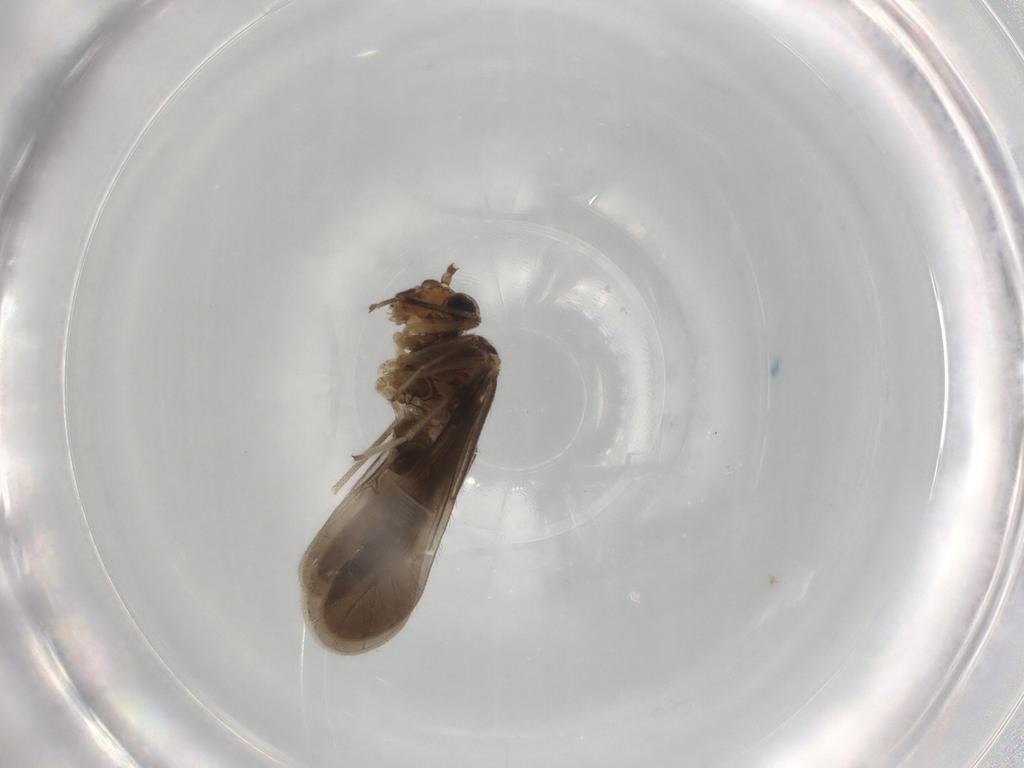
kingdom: Animalia
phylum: Arthropoda
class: Insecta
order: Psocodea
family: Caeciliusidae
